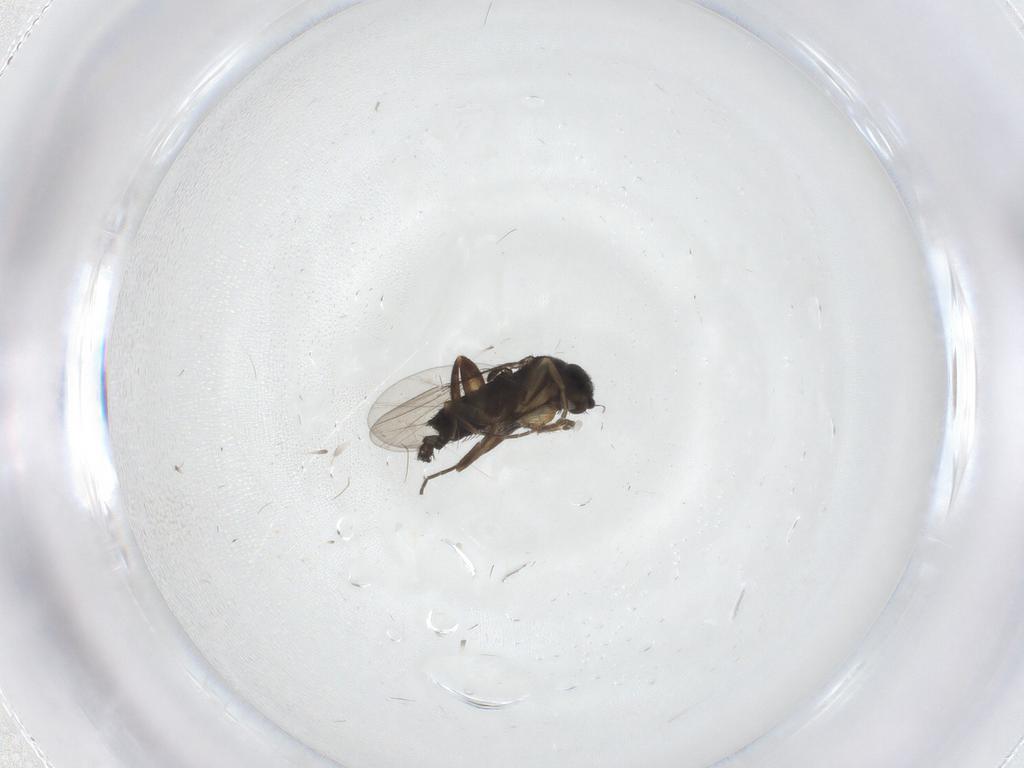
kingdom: Animalia
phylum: Arthropoda
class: Insecta
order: Diptera
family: Phoridae
